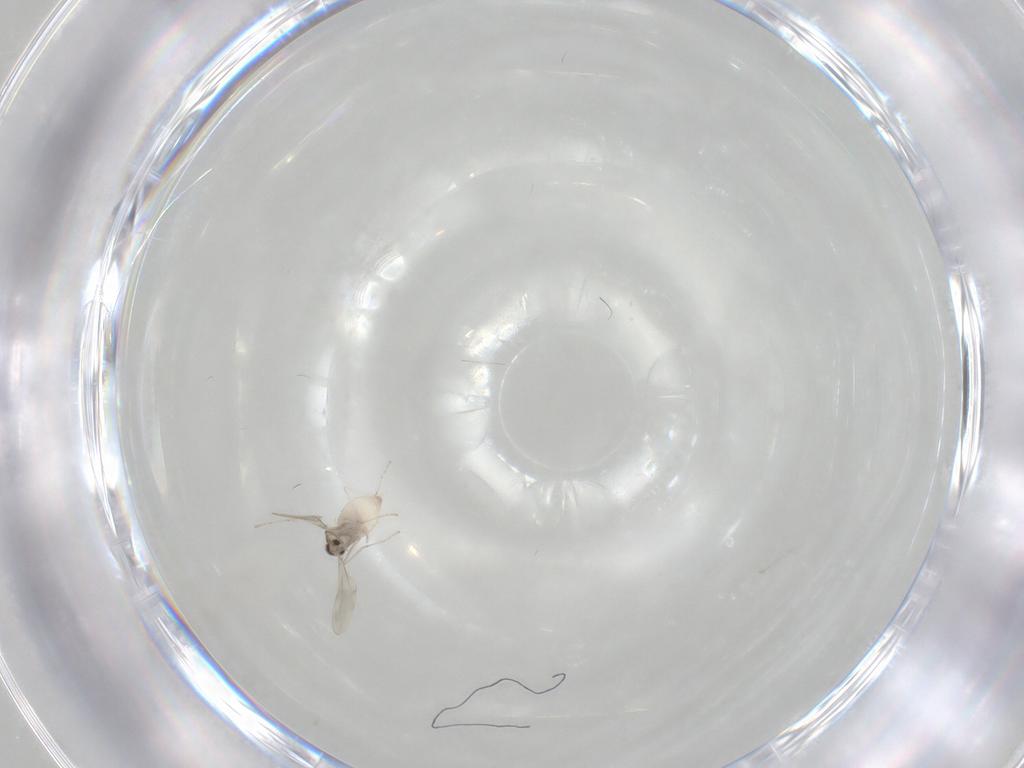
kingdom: Animalia
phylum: Arthropoda
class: Insecta
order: Diptera
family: Cecidomyiidae
